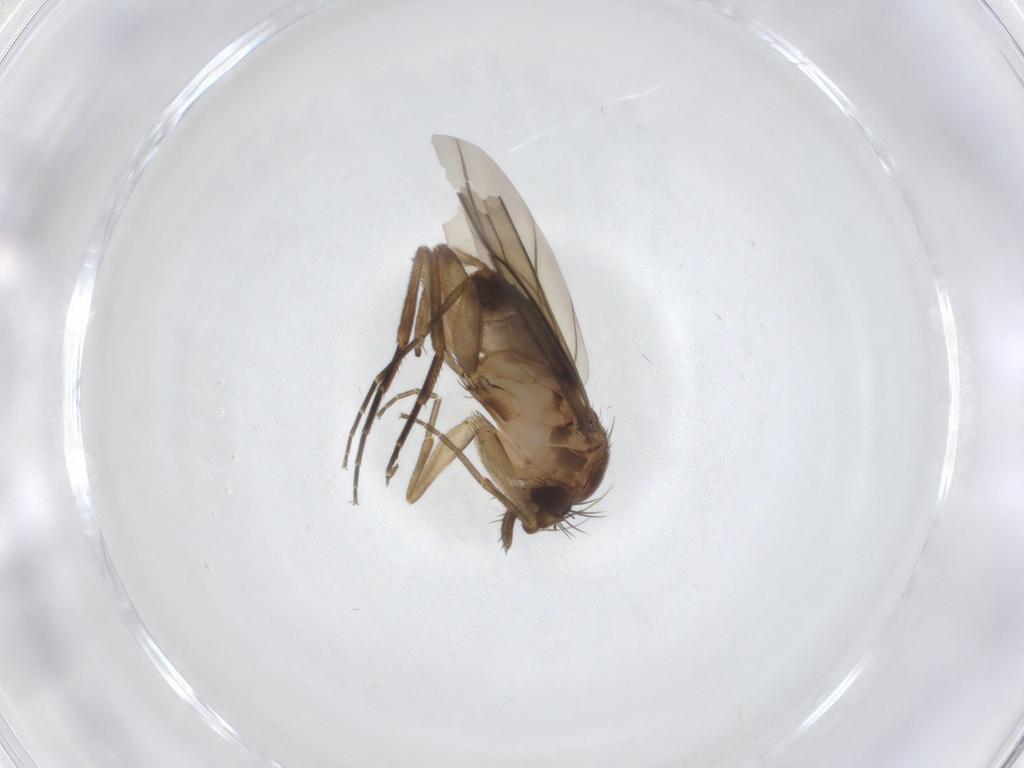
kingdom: Animalia
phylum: Arthropoda
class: Insecta
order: Diptera
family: Phoridae
